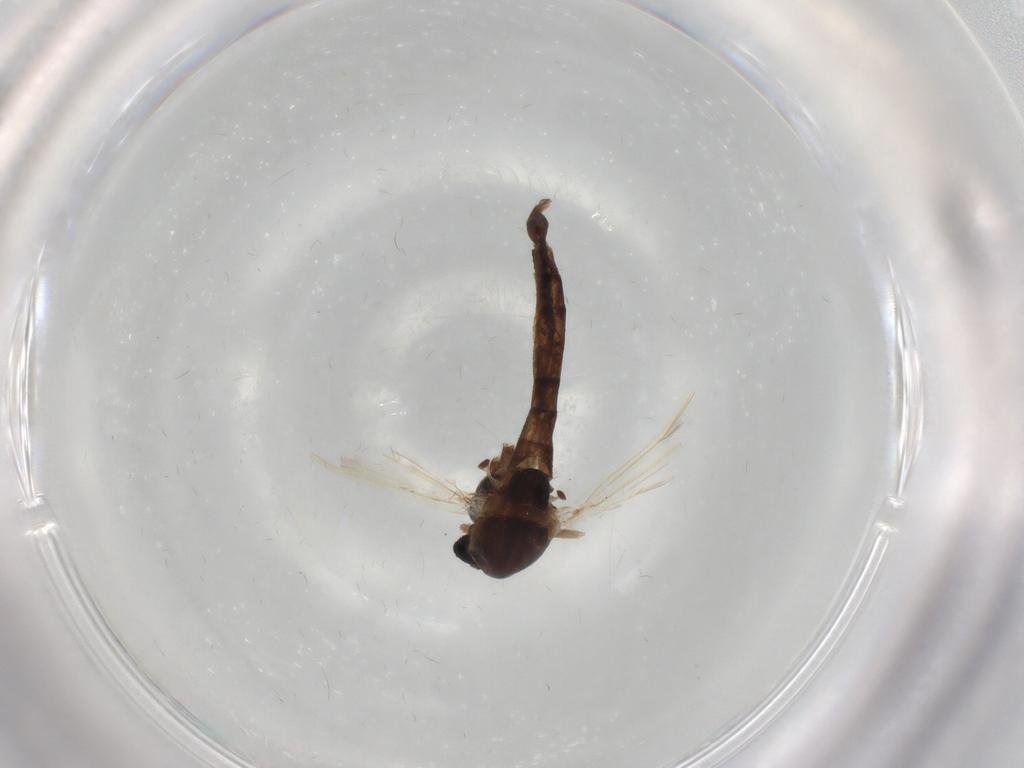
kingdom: Animalia
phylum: Arthropoda
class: Insecta
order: Diptera
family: Chironomidae
